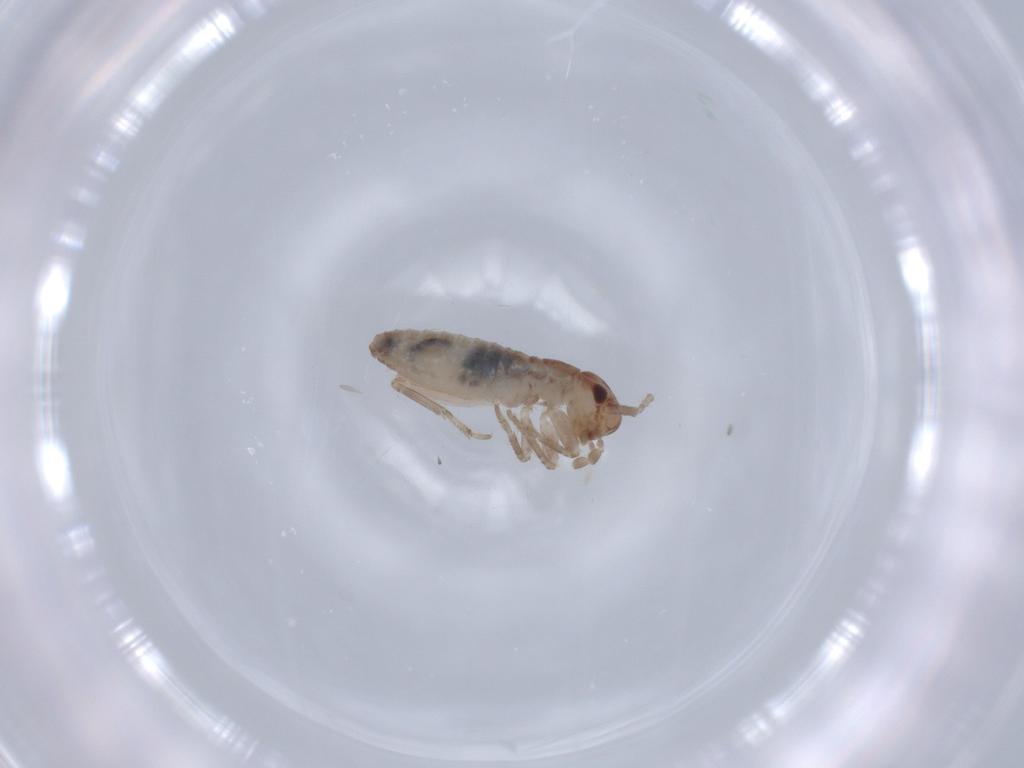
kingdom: Animalia
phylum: Arthropoda
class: Insecta
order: Orthoptera
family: Mogoplistidae
